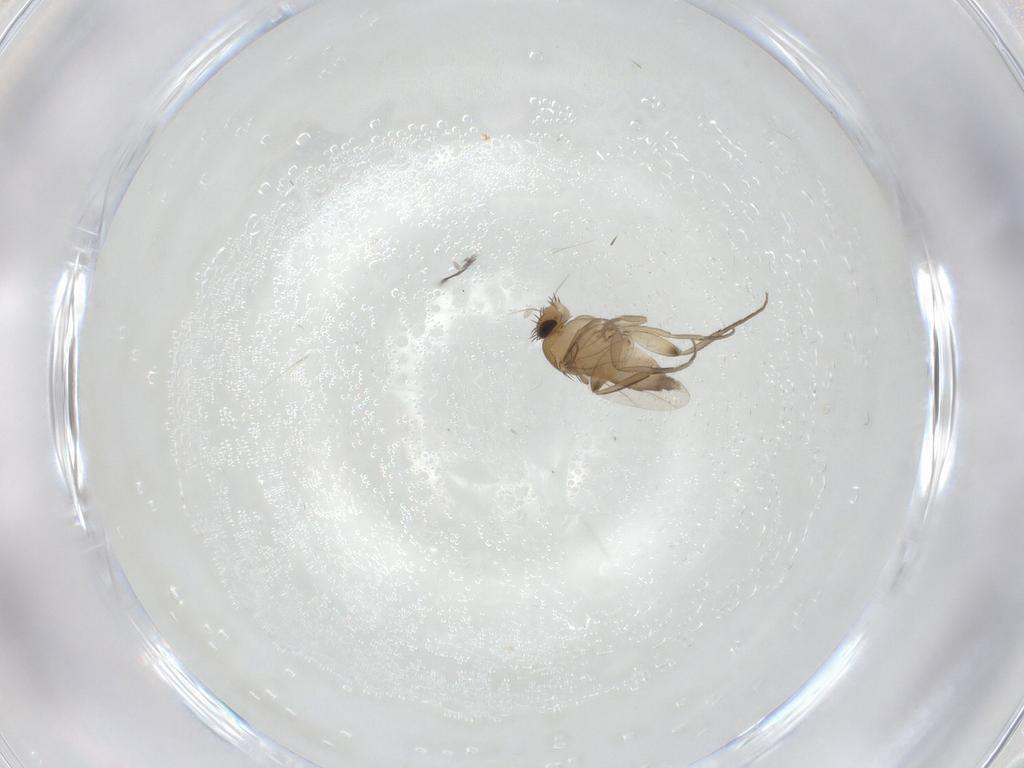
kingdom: Animalia
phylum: Arthropoda
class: Insecta
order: Diptera
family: Phoridae
